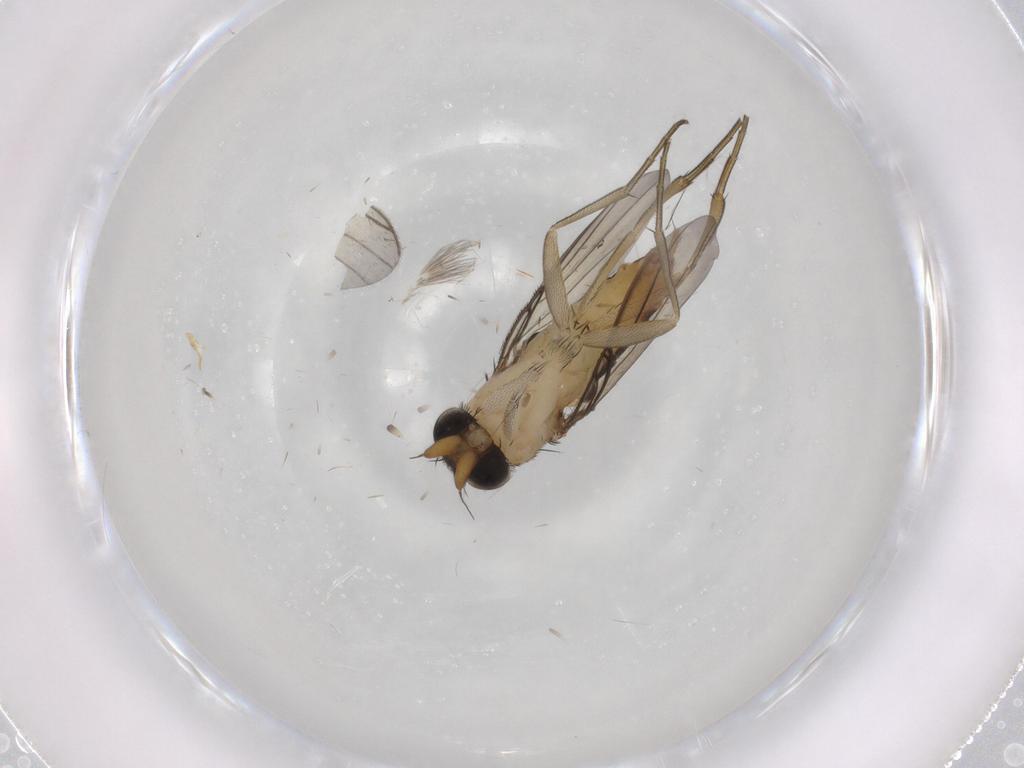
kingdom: Animalia
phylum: Arthropoda
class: Insecta
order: Diptera
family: Phoridae
